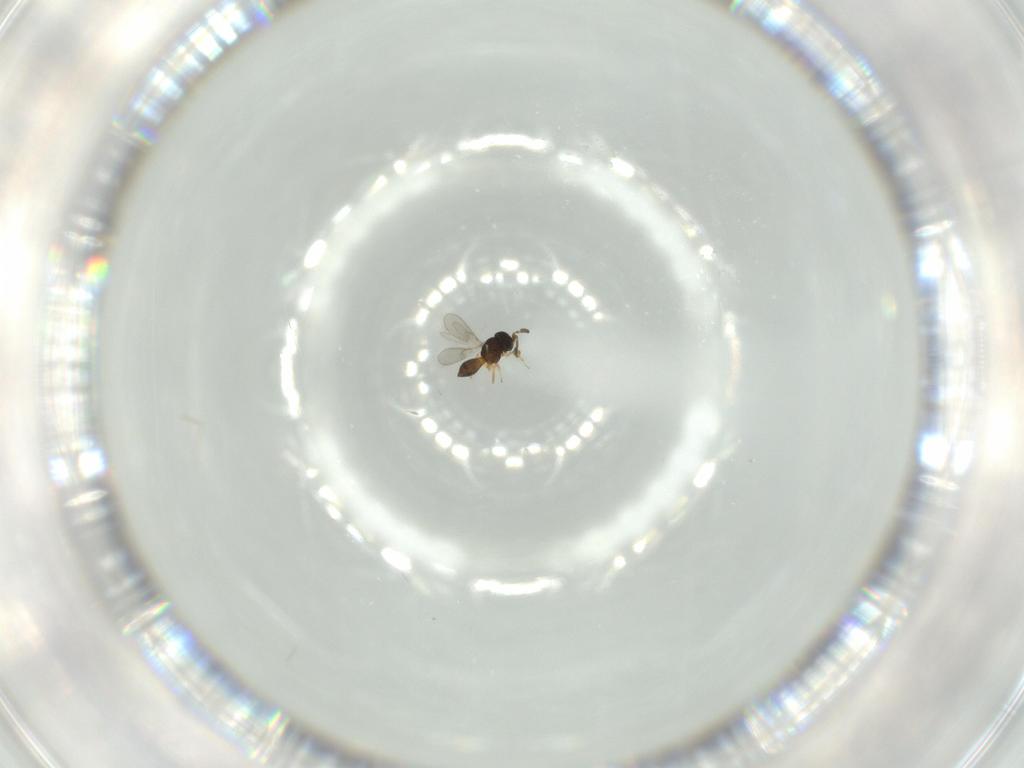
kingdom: Animalia
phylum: Arthropoda
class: Insecta
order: Hymenoptera
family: Scelionidae
